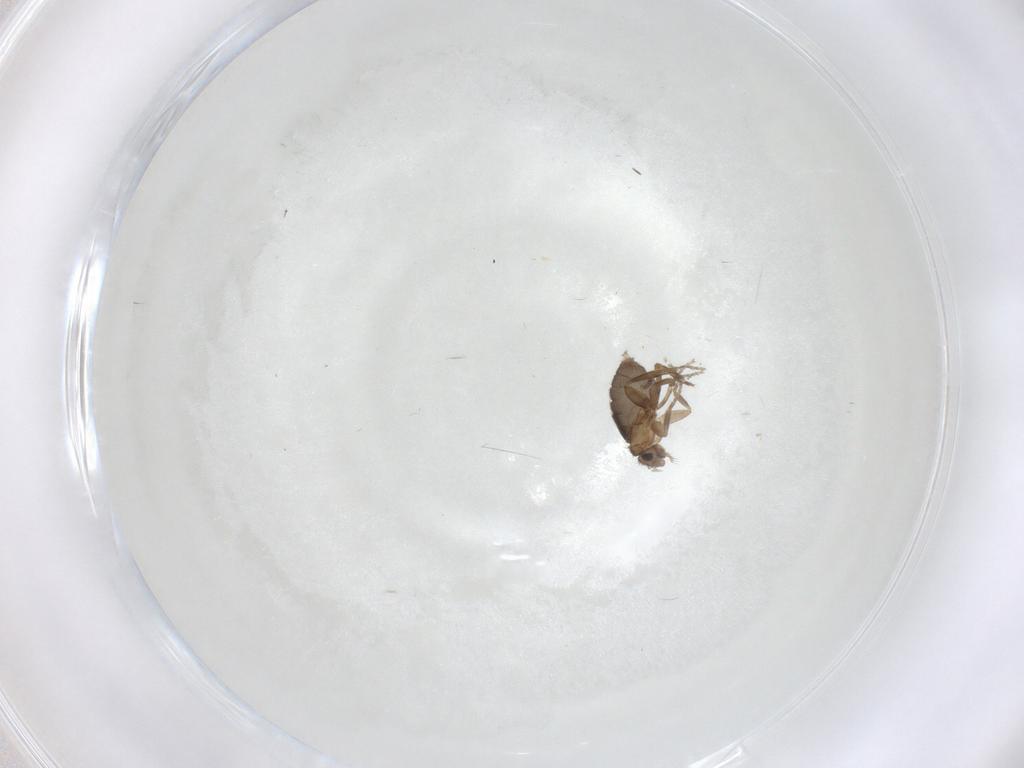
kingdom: Animalia
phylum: Arthropoda
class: Insecta
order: Diptera
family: Phoridae
